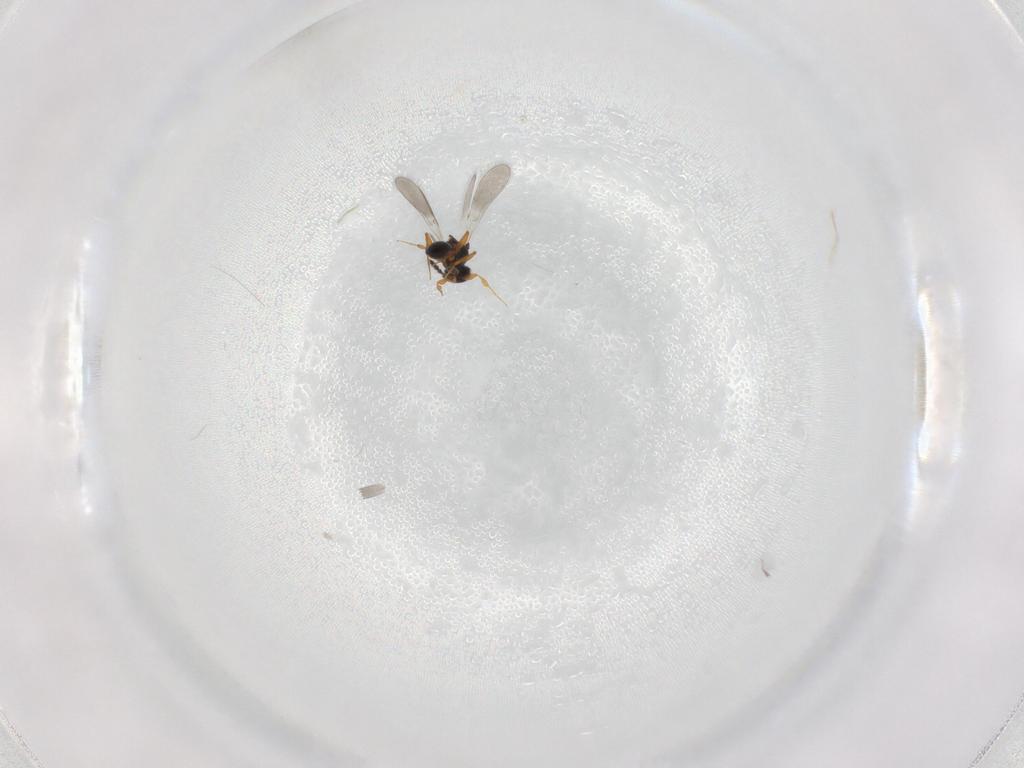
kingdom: Animalia
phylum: Arthropoda
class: Insecta
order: Hymenoptera
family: Platygastridae
